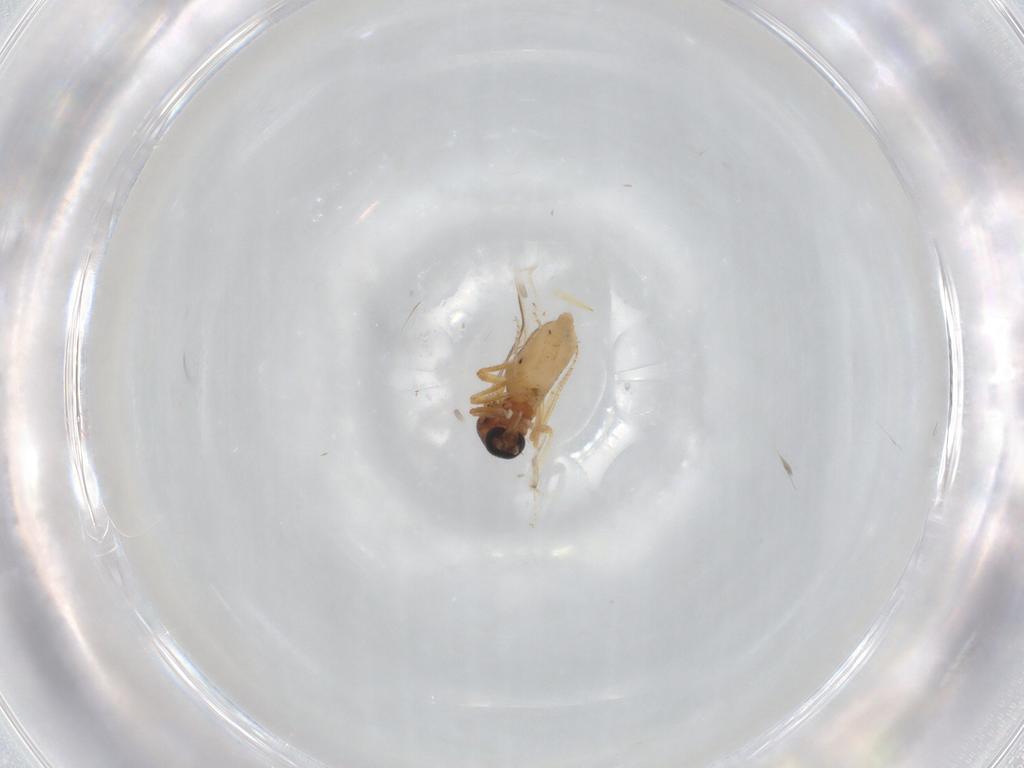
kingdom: Animalia
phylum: Arthropoda
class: Insecta
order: Diptera
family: Ceratopogonidae
